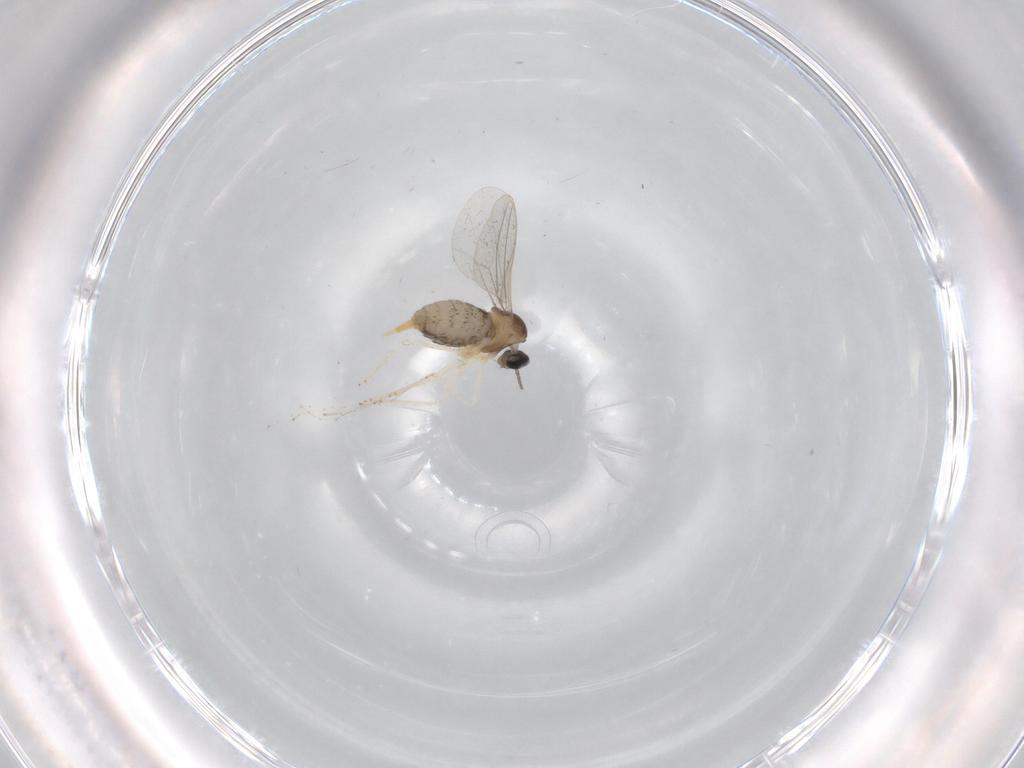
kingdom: Animalia
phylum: Arthropoda
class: Insecta
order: Diptera
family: Cecidomyiidae
